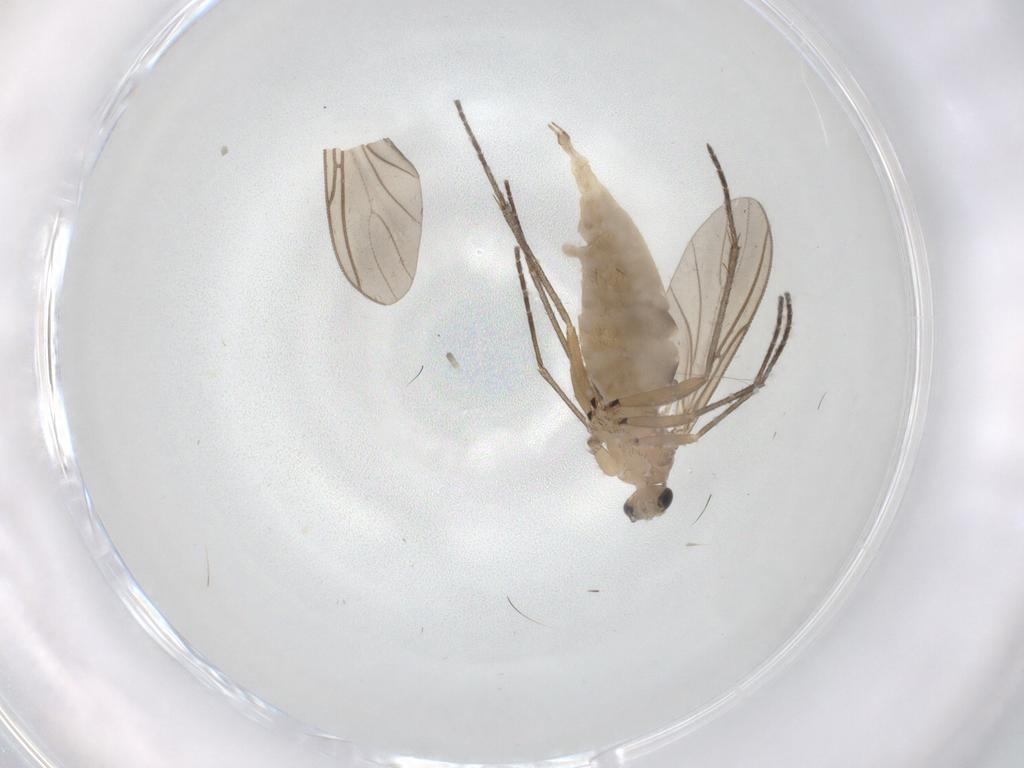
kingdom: Animalia
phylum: Arthropoda
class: Insecta
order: Diptera
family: Sciaridae
